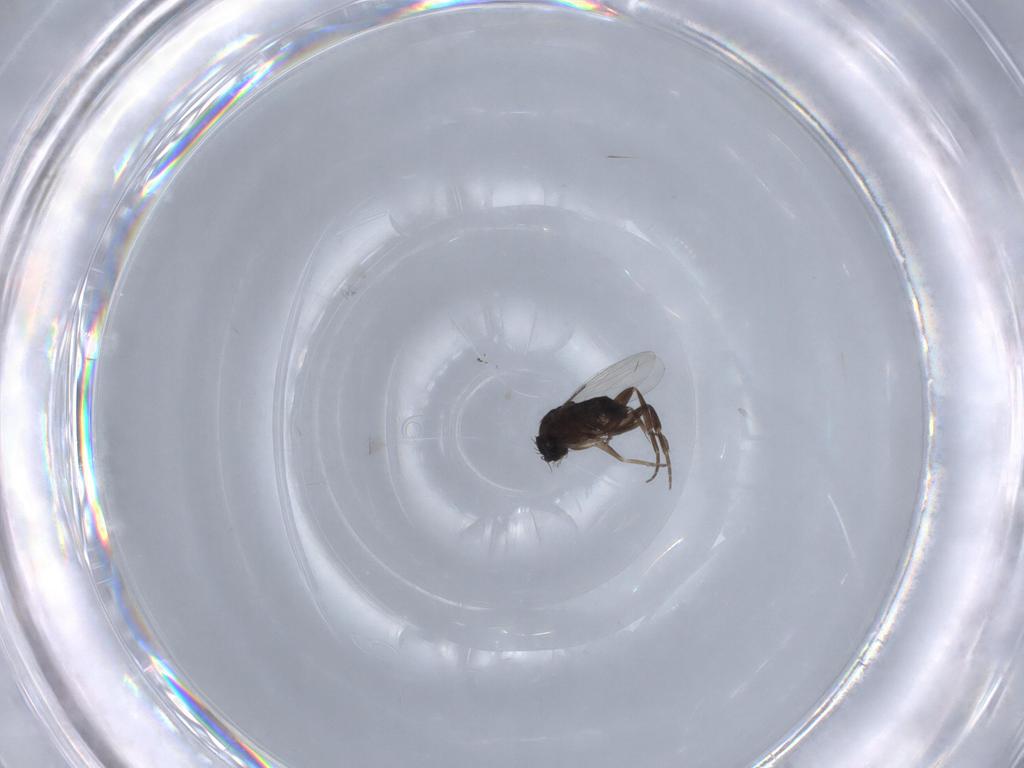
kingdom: Animalia
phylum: Arthropoda
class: Insecta
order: Diptera
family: Phoridae
